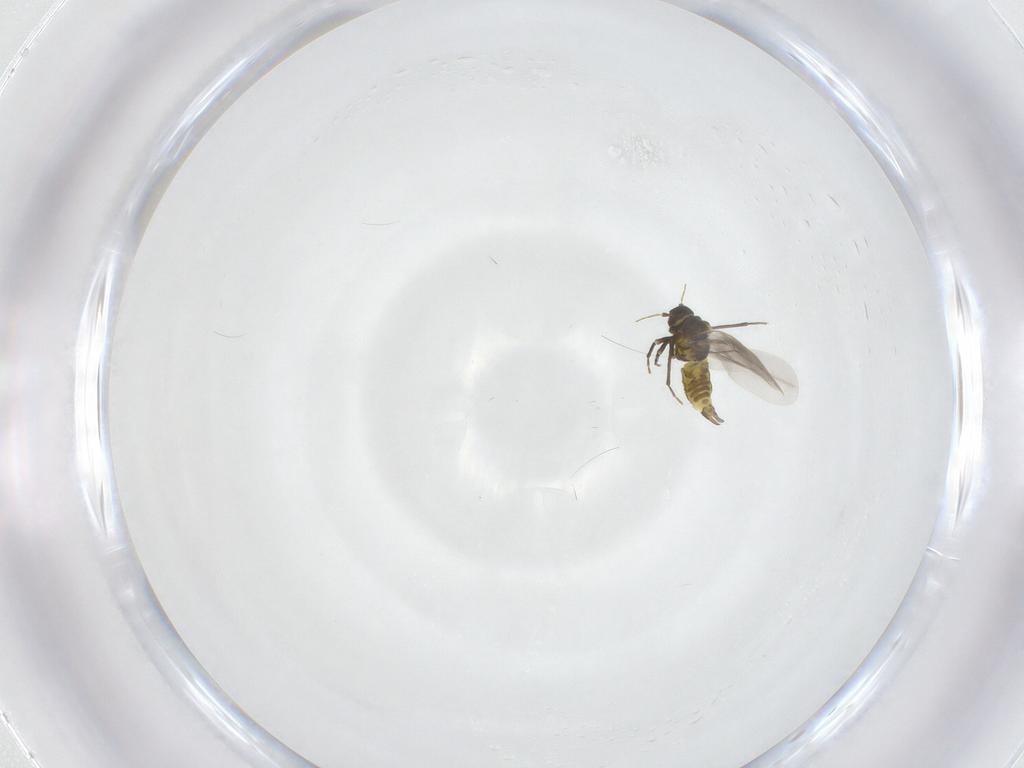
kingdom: Animalia
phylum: Arthropoda
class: Insecta
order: Hemiptera
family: Aleyrodidae
